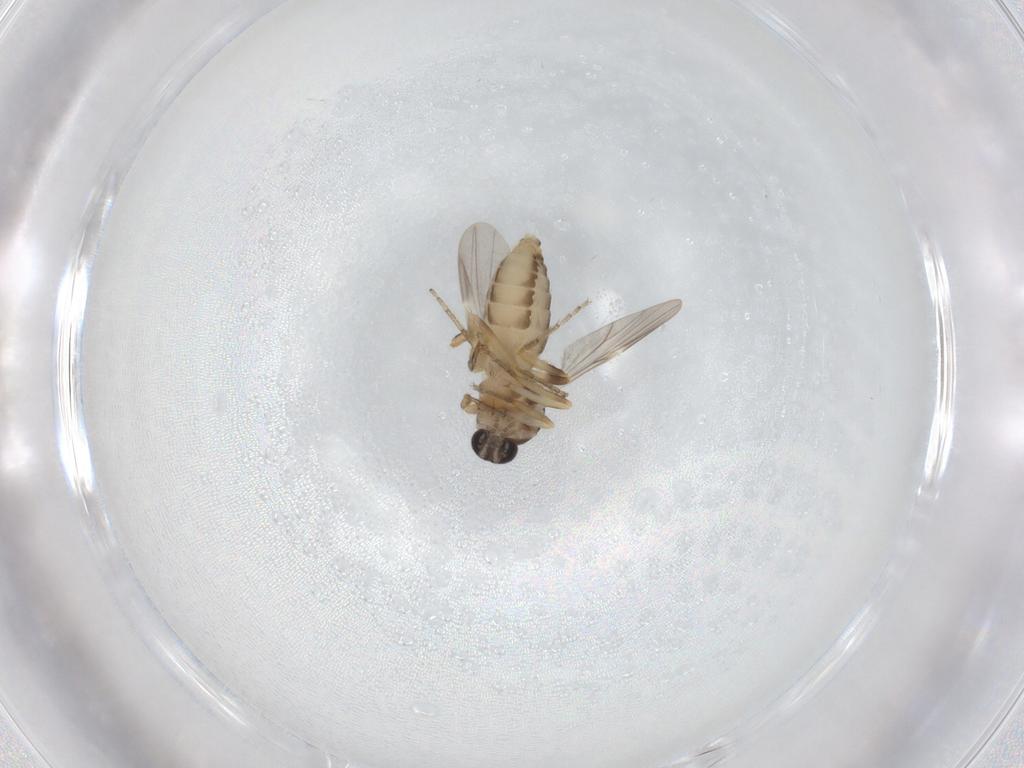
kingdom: Animalia
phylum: Arthropoda
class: Insecta
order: Diptera
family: Ceratopogonidae
